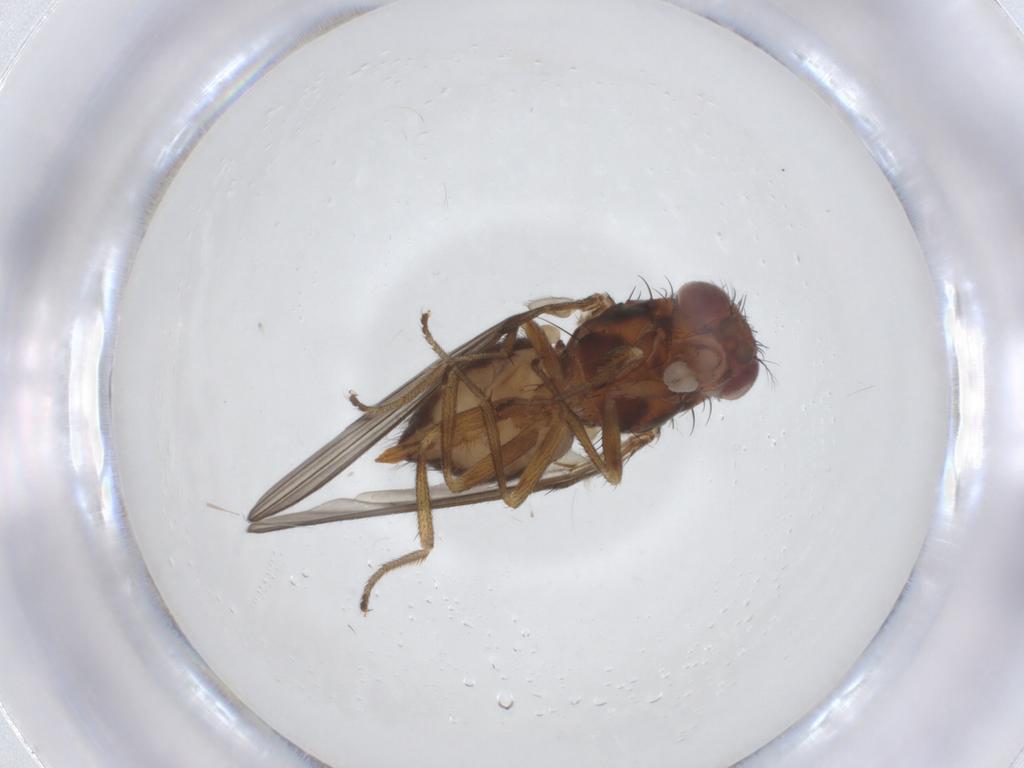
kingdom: Animalia
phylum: Arthropoda
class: Insecta
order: Diptera
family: Drosophilidae
